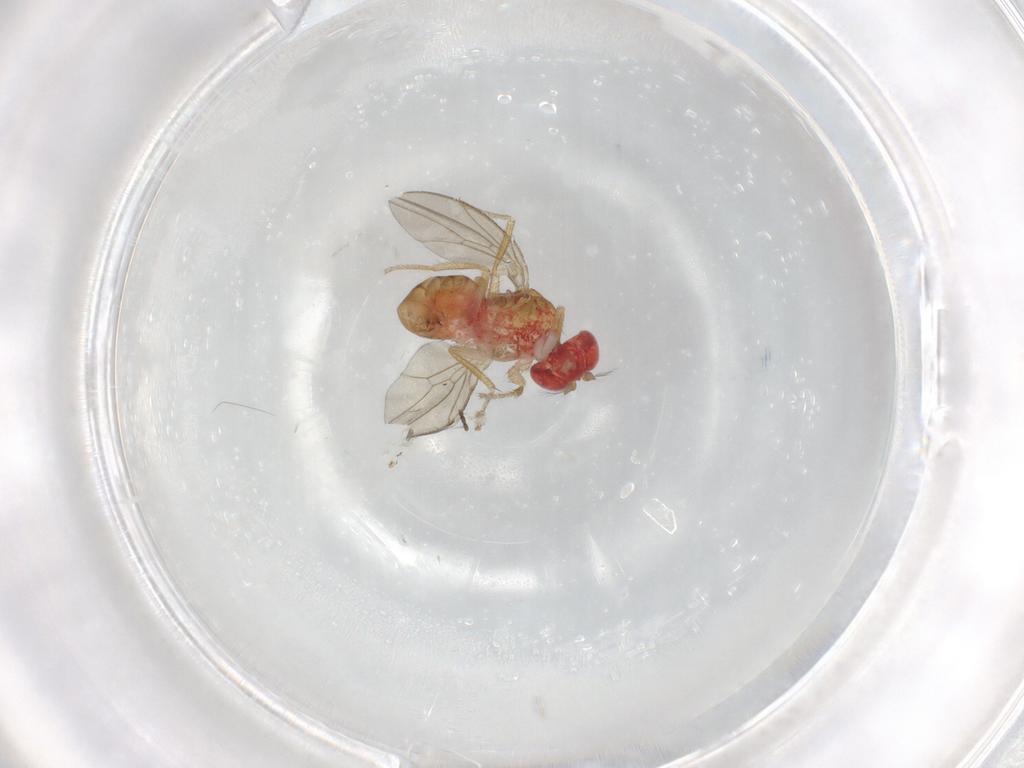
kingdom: Animalia
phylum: Arthropoda
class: Insecta
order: Diptera
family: Drosophilidae
